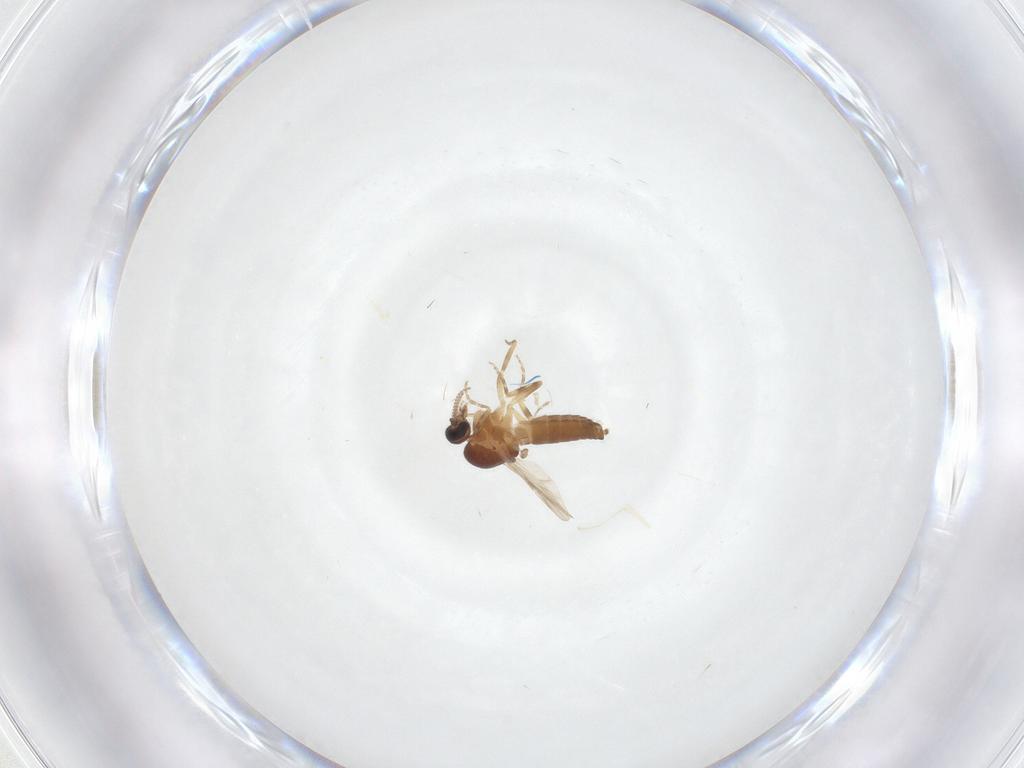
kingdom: Animalia
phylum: Arthropoda
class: Insecta
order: Diptera
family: Ceratopogonidae
